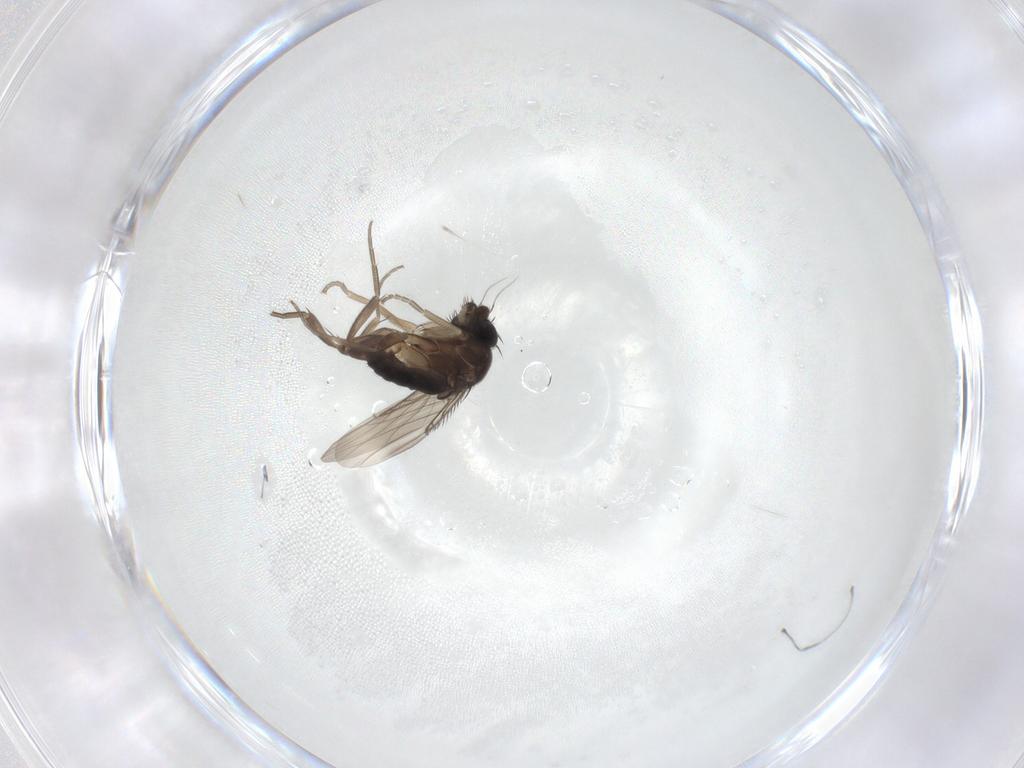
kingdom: Animalia
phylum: Arthropoda
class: Insecta
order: Diptera
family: Phoridae
